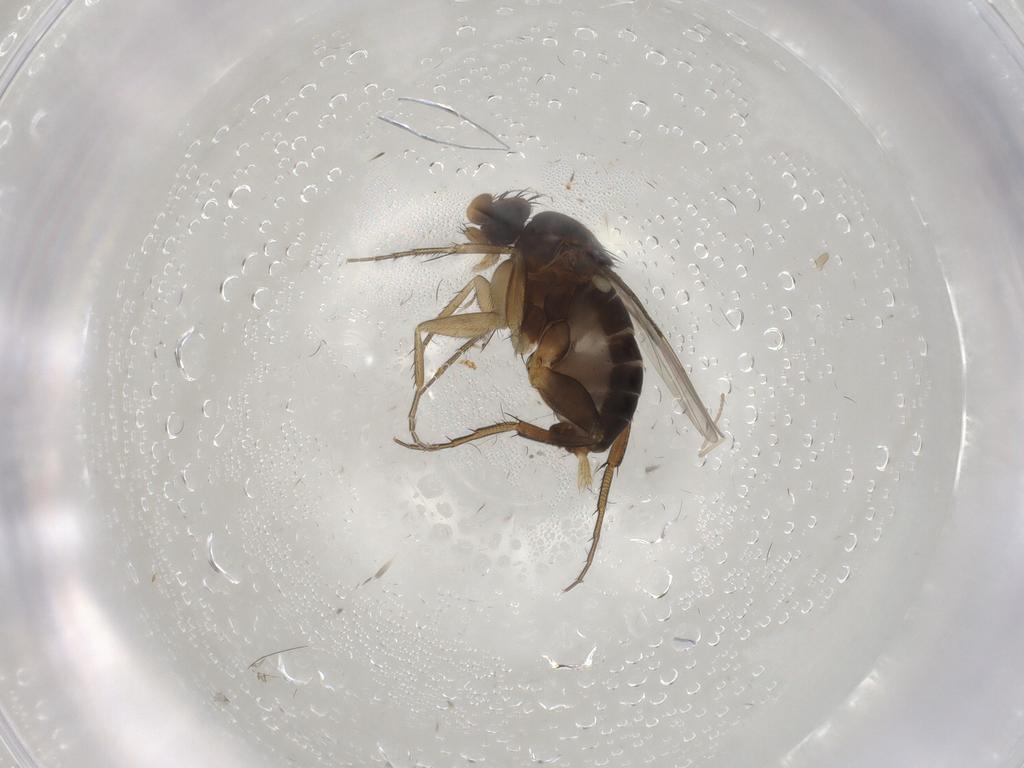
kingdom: Animalia
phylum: Arthropoda
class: Insecta
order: Diptera
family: Phoridae
